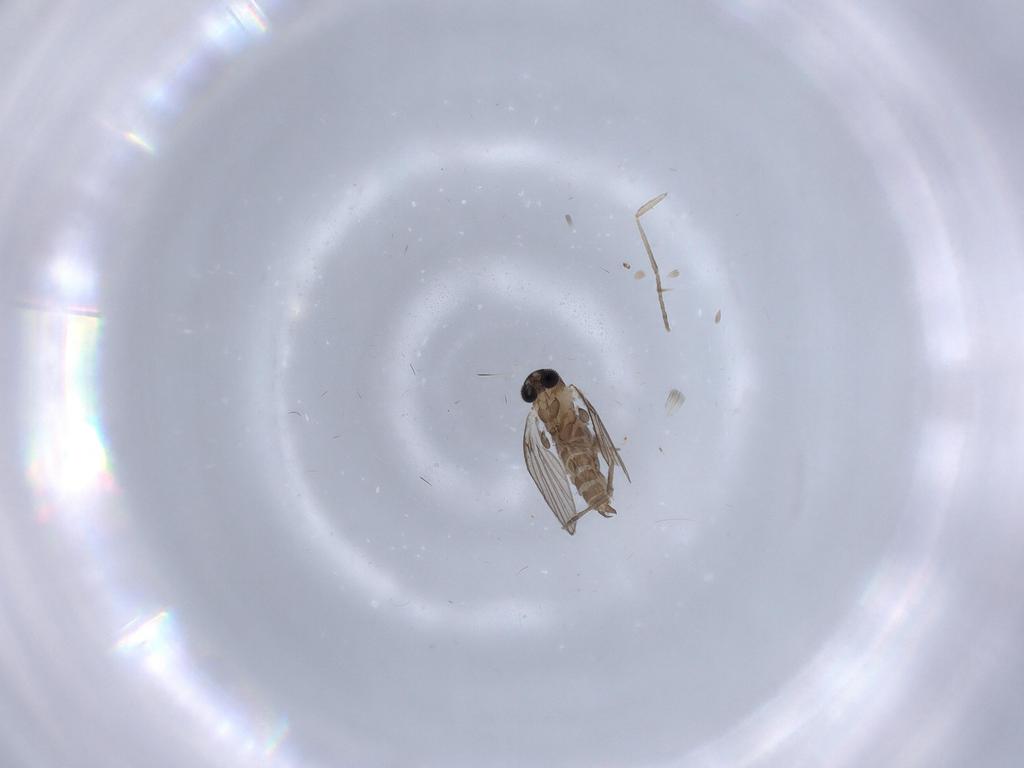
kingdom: Animalia
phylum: Arthropoda
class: Insecta
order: Diptera
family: Ceratopogonidae
